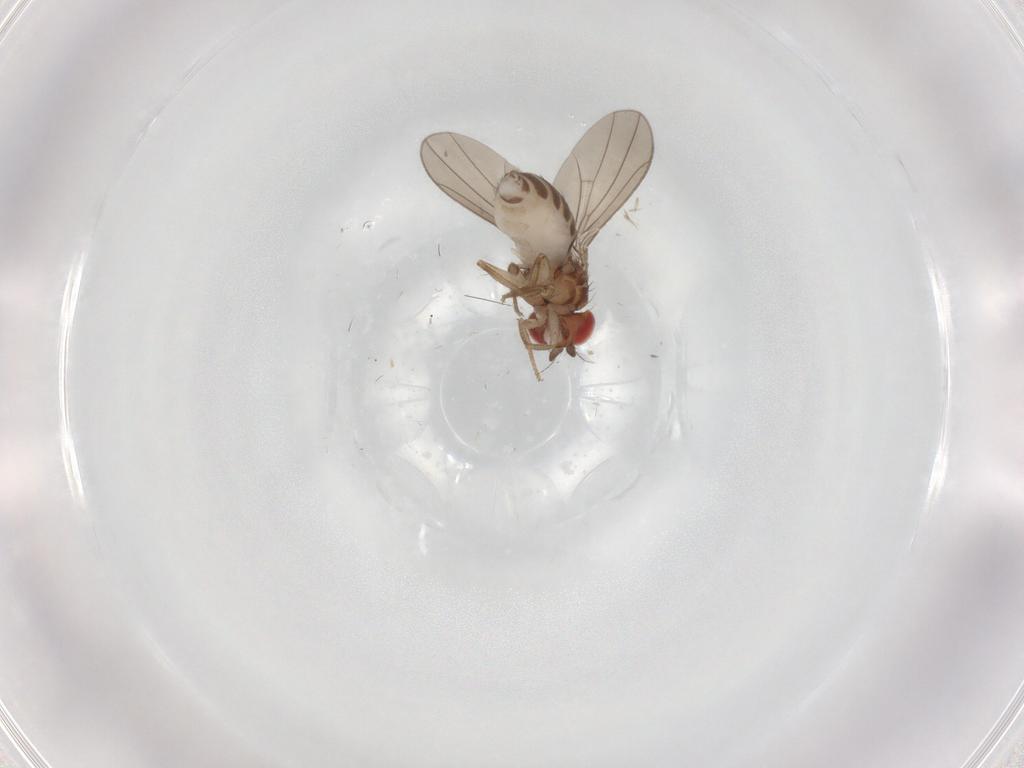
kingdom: Animalia
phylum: Arthropoda
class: Insecta
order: Diptera
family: Drosophilidae
